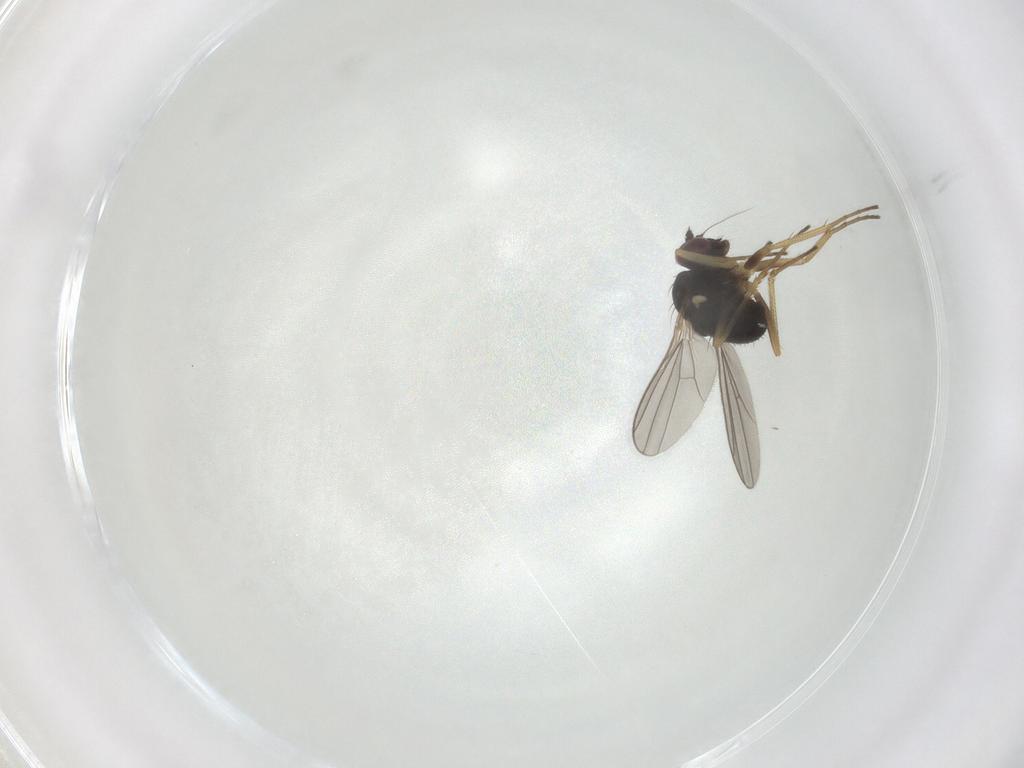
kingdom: Animalia
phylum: Arthropoda
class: Insecta
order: Diptera
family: Dolichopodidae
